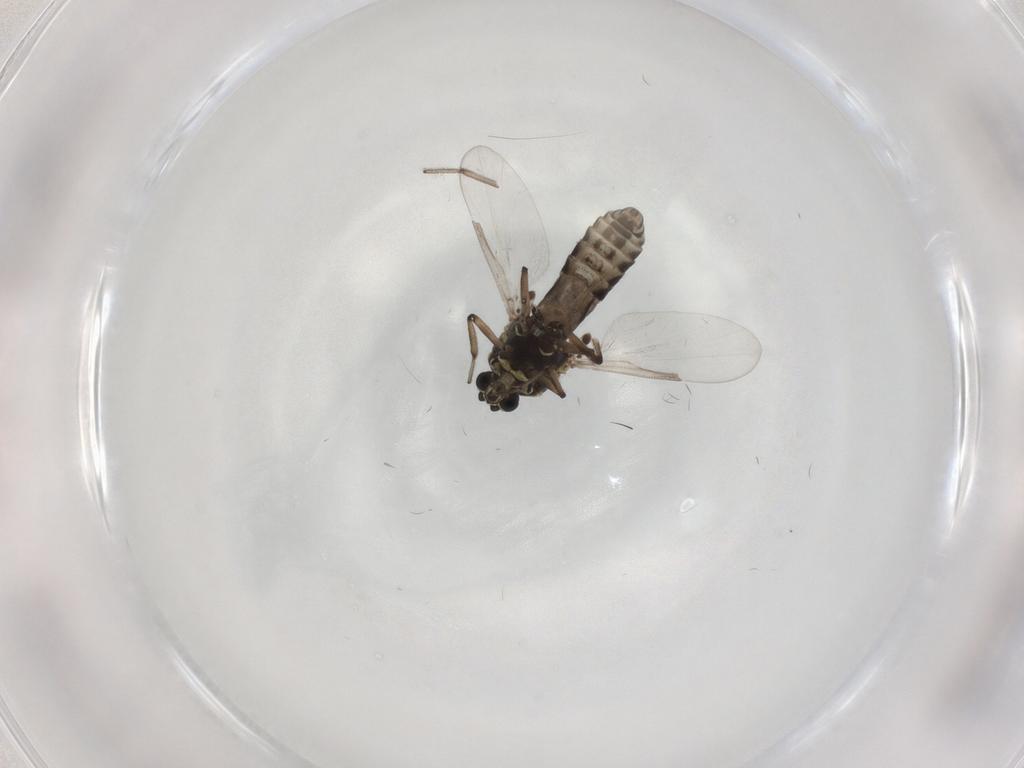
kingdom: Animalia
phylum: Arthropoda
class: Insecta
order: Diptera
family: Ceratopogonidae
